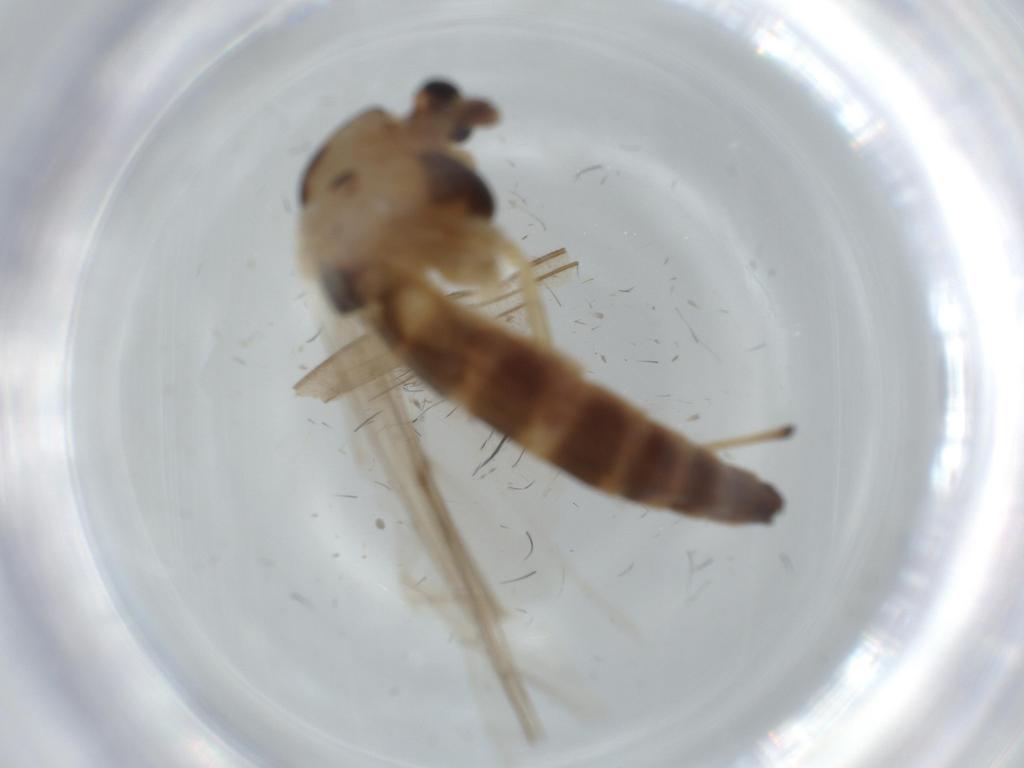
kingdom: Animalia
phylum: Arthropoda
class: Insecta
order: Diptera
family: Chironomidae
